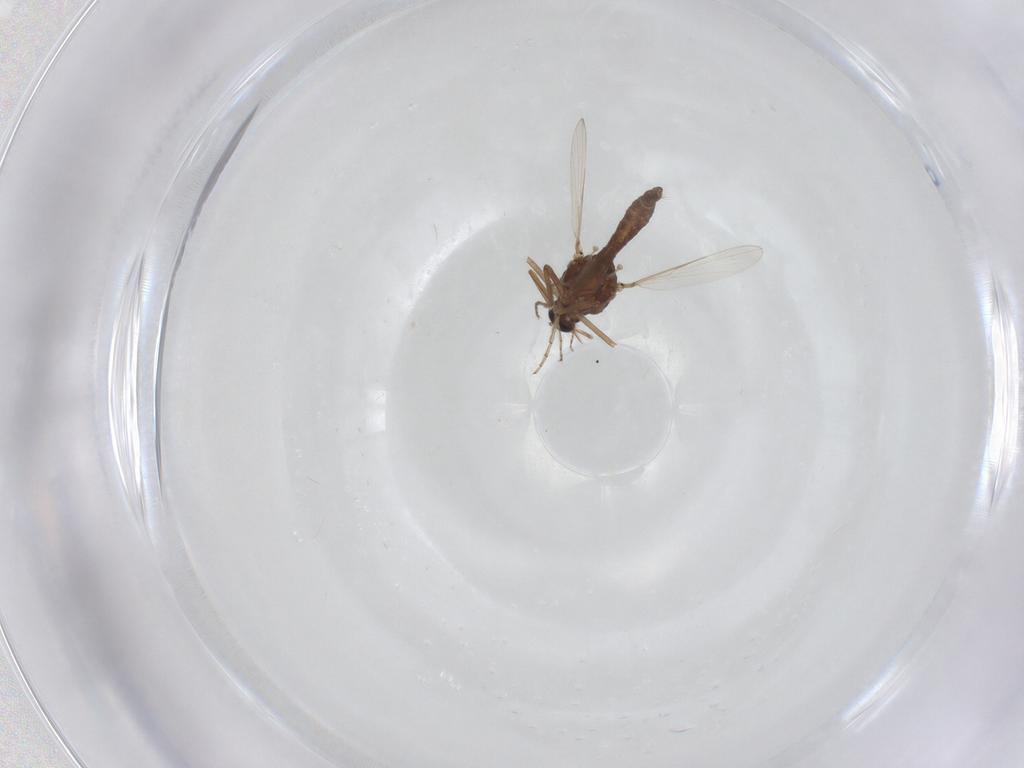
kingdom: Animalia
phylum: Arthropoda
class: Insecta
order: Diptera
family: Ceratopogonidae
